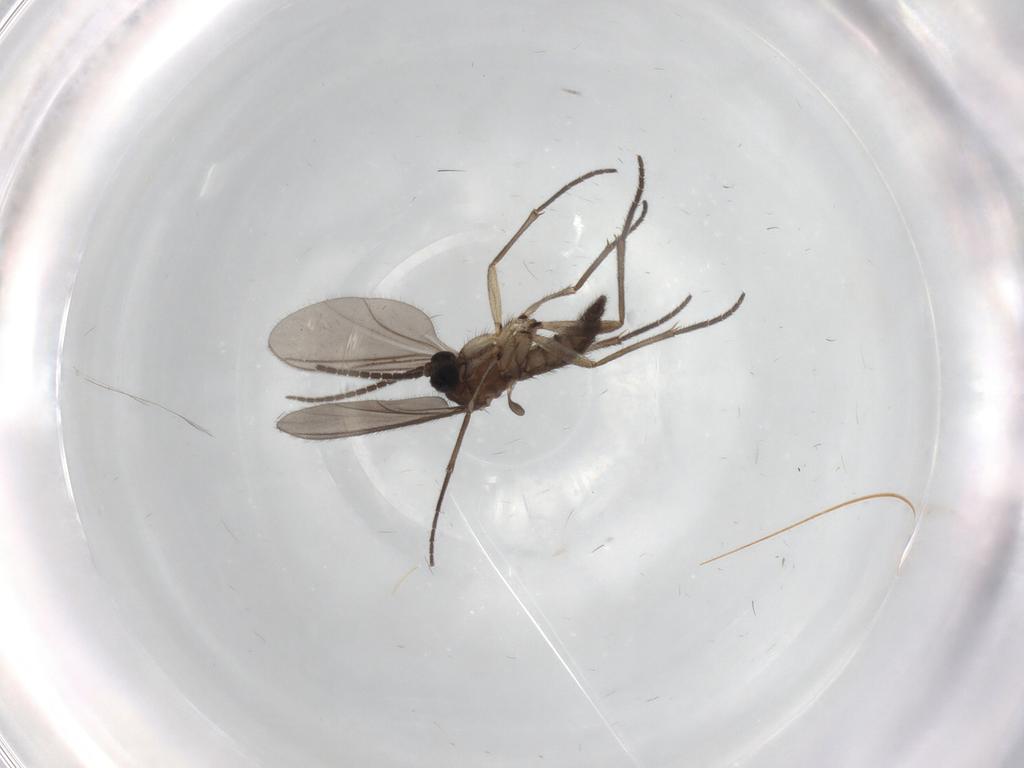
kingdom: Animalia
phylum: Arthropoda
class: Insecta
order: Diptera
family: Sciaridae
